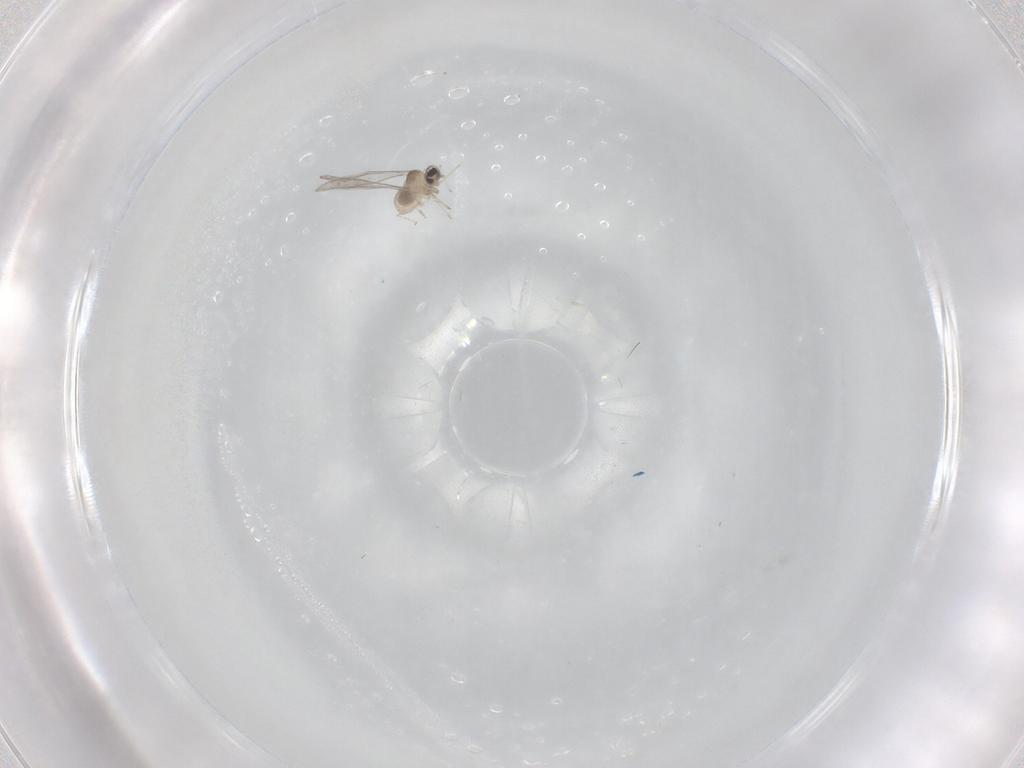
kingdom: Animalia
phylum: Arthropoda
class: Insecta
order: Diptera
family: Cecidomyiidae
